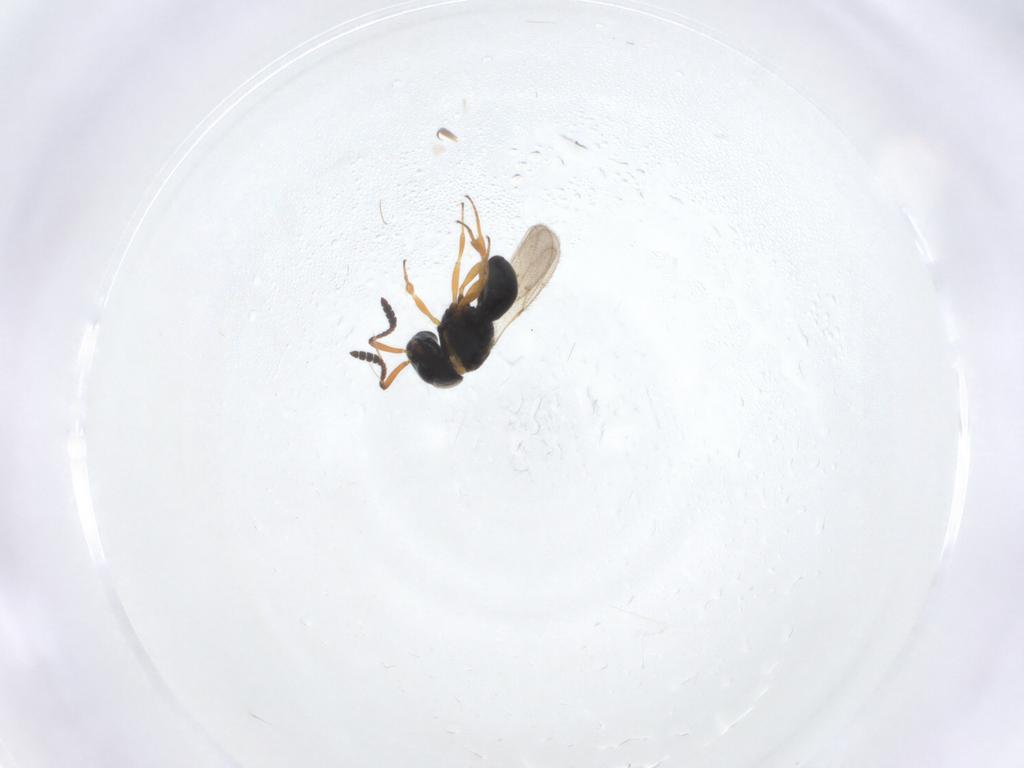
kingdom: Animalia
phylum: Arthropoda
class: Insecta
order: Hymenoptera
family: Scelionidae
